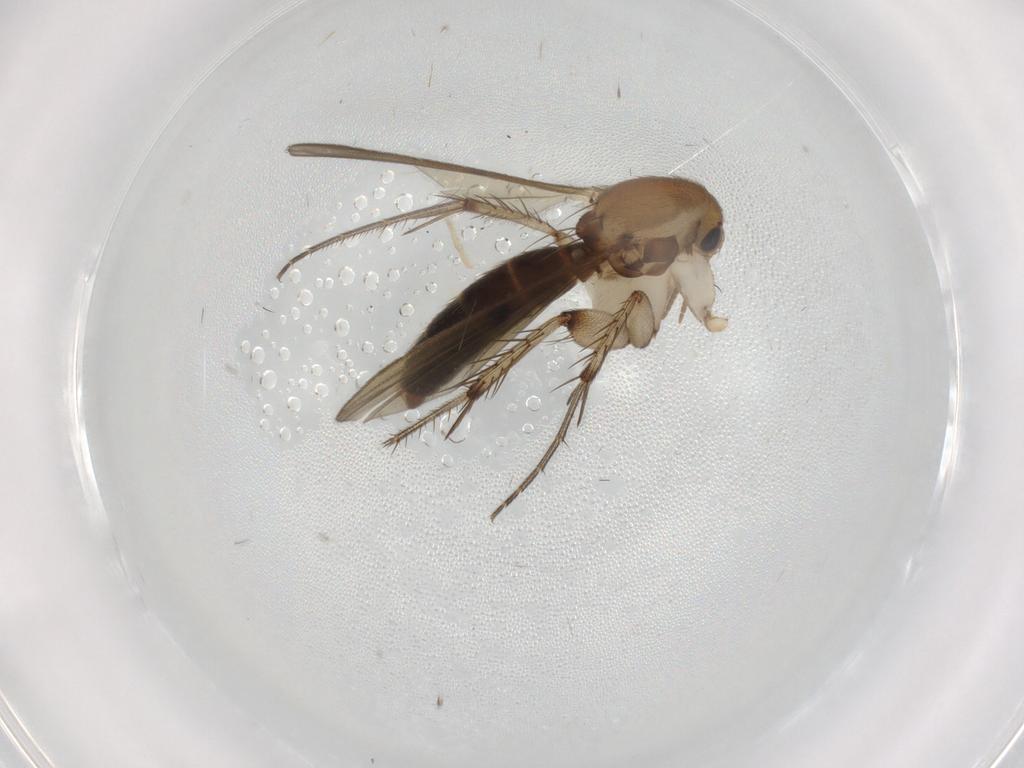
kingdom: Animalia
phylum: Arthropoda
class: Insecta
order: Diptera
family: Mycetophilidae
